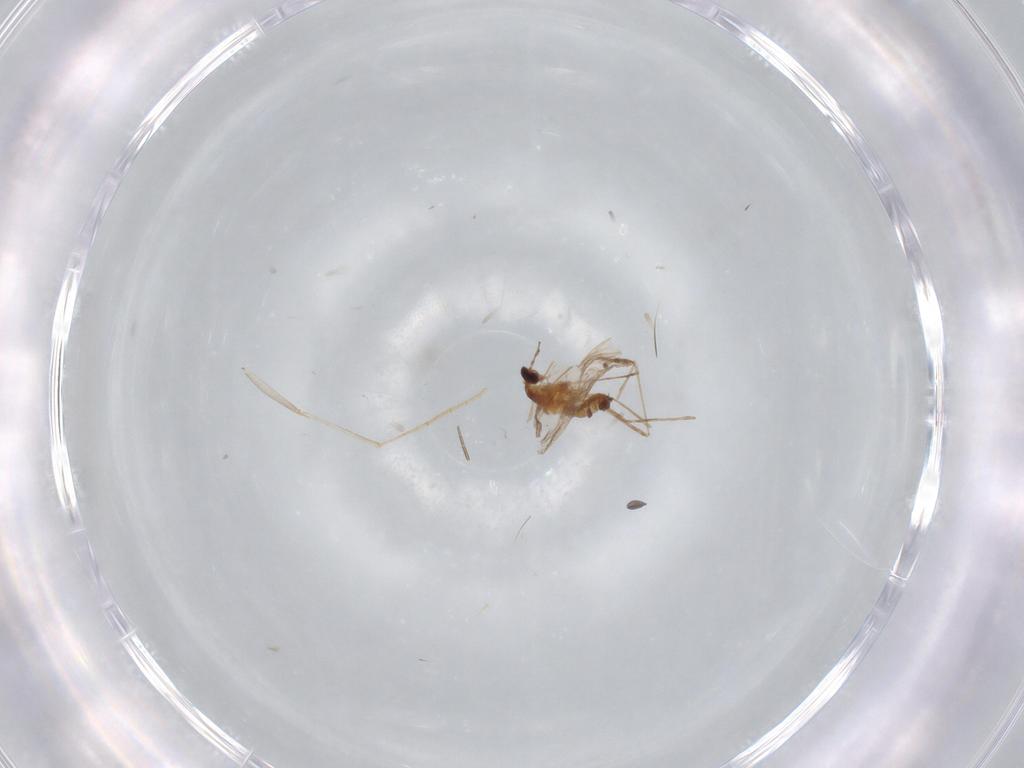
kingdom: Animalia
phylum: Arthropoda
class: Insecta
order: Diptera
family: Cecidomyiidae
